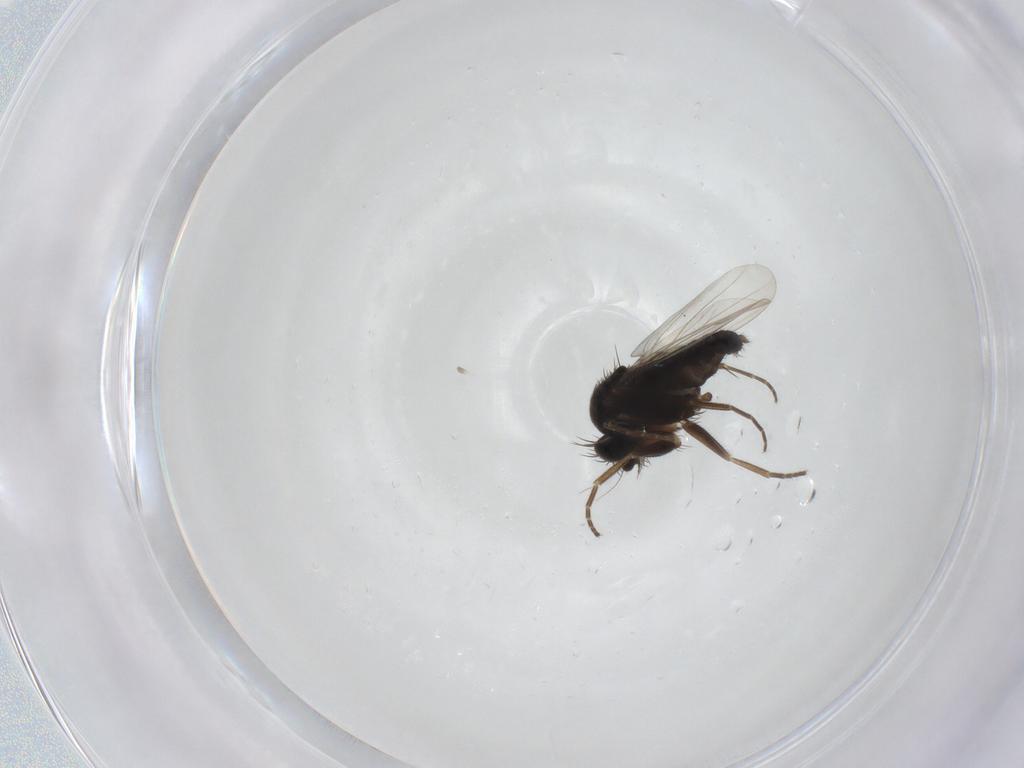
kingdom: Animalia
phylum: Arthropoda
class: Insecta
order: Diptera
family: Phoridae
